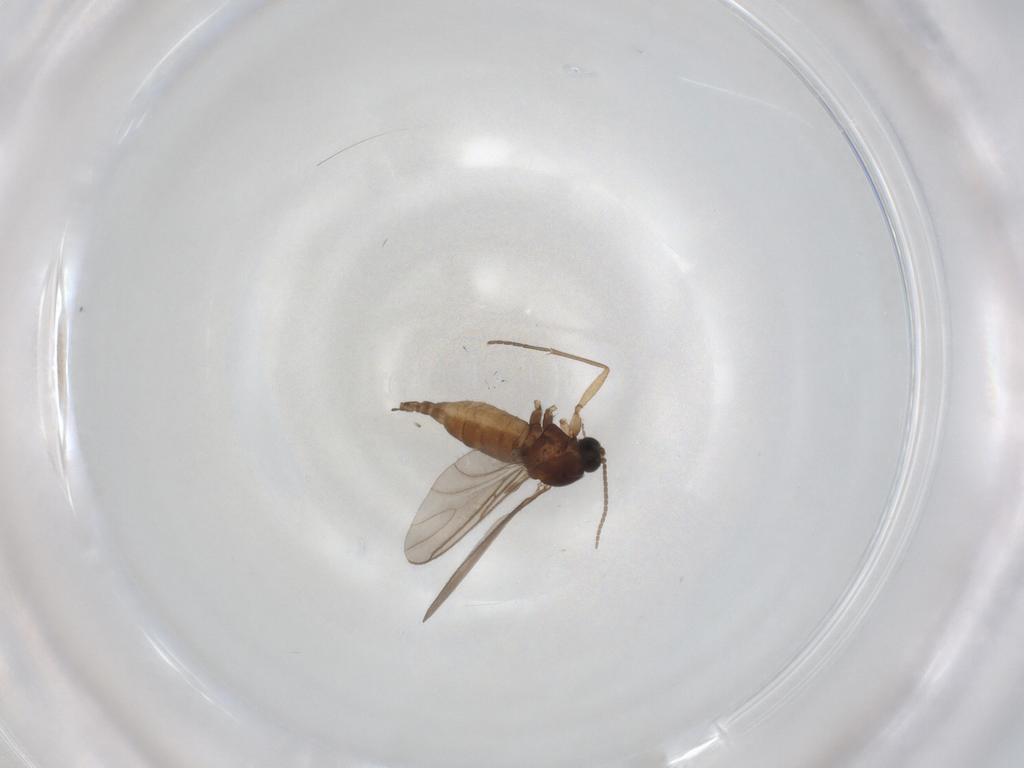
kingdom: Animalia
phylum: Arthropoda
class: Insecta
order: Diptera
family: Sciaridae
